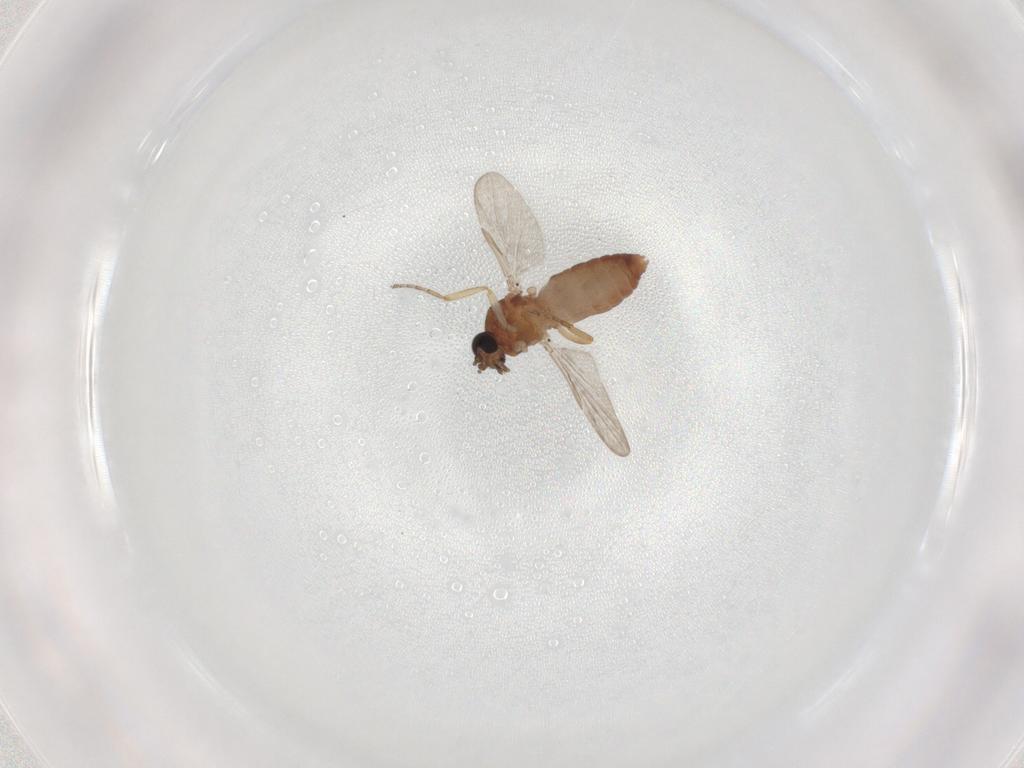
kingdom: Animalia
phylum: Arthropoda
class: Insecta
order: Diptera
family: Ceratopogonidae
